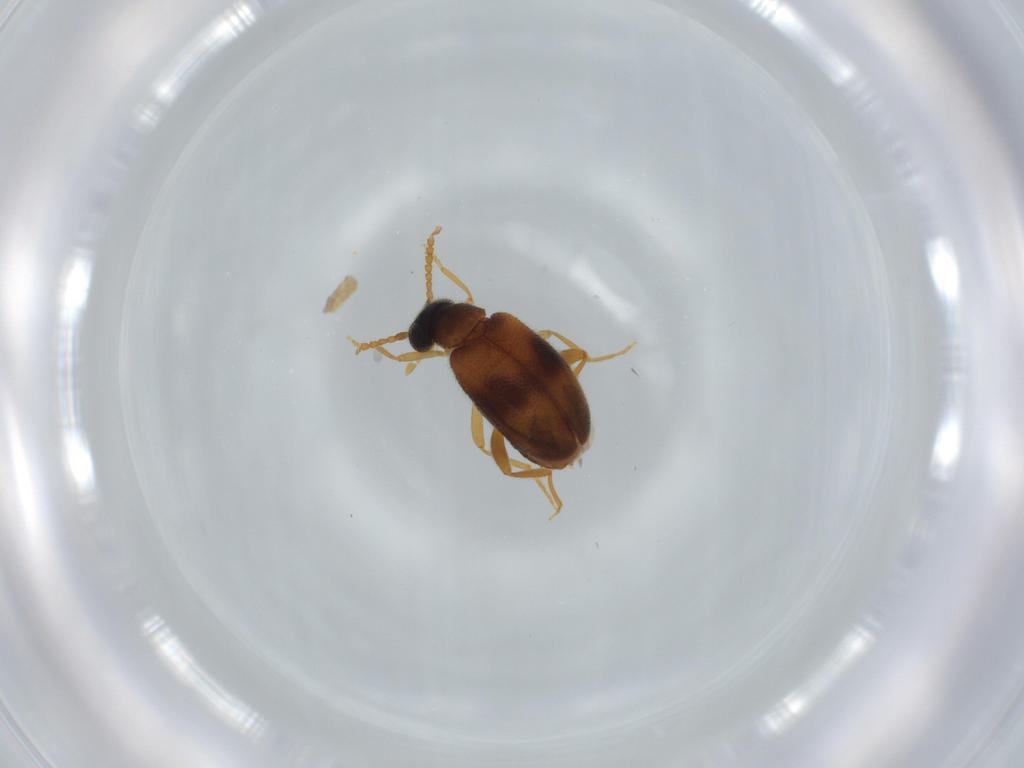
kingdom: Animalia
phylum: Arthropoda
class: Insecta
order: Coleoptera
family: Aderidae
